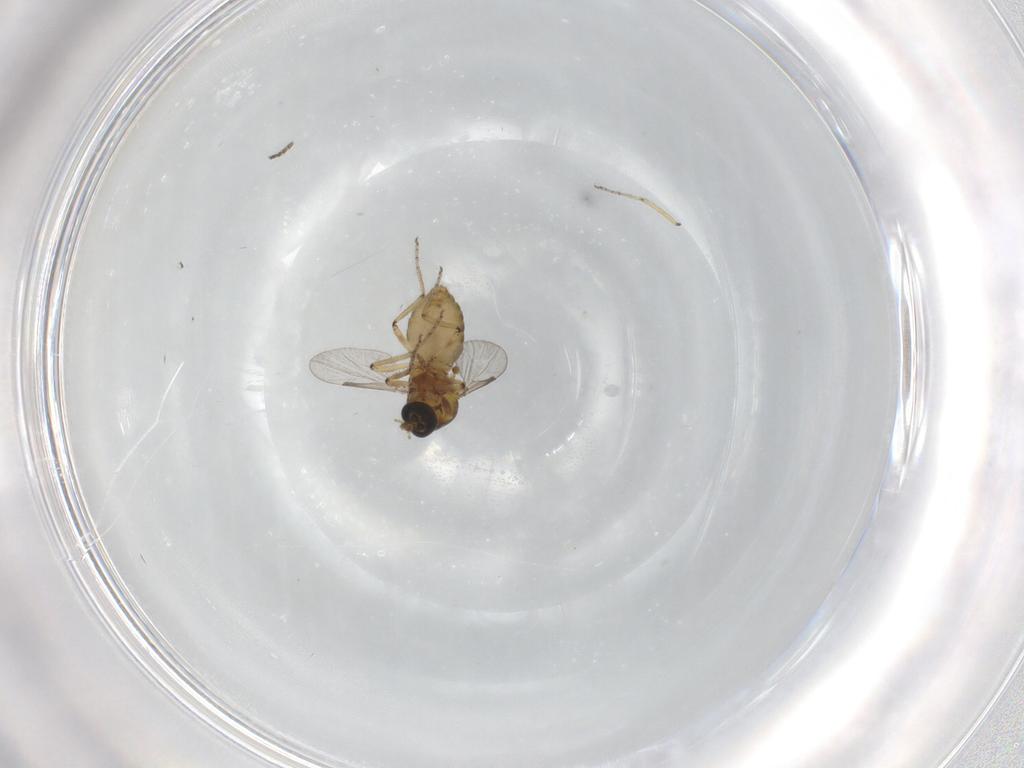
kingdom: Animalia
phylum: Arthropoda
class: Insecta
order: Diptera
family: Ceratopogonidae
